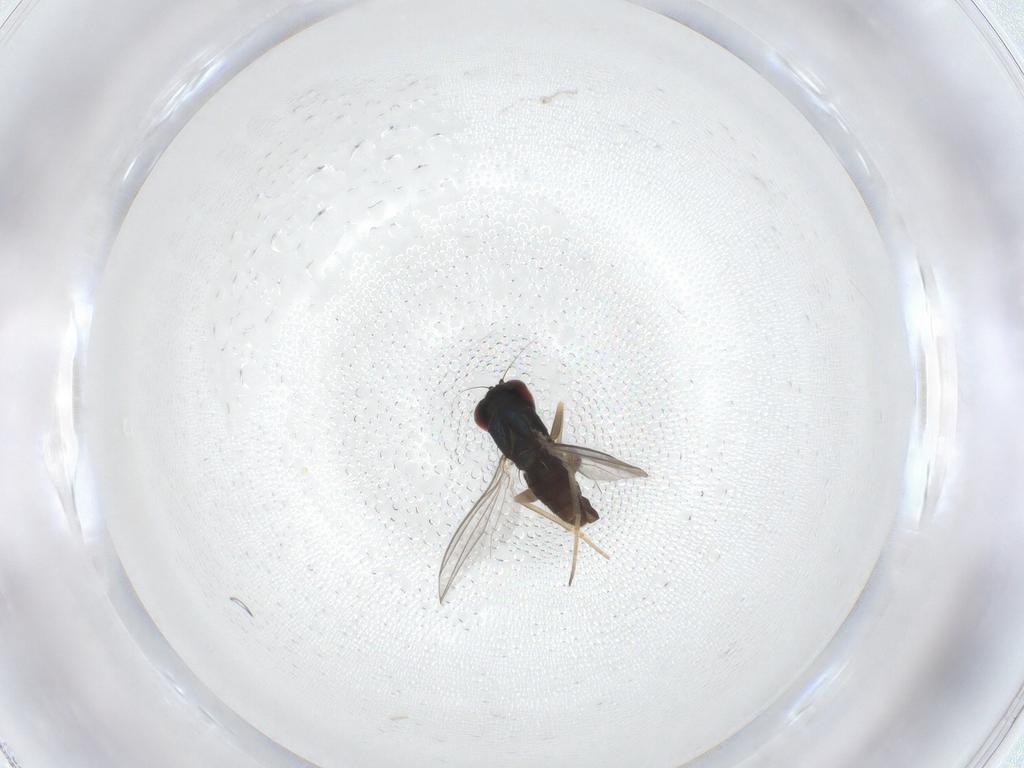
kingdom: Animalia
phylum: Arthropoda
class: Insecta
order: Diptera
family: Dolichopodidae
